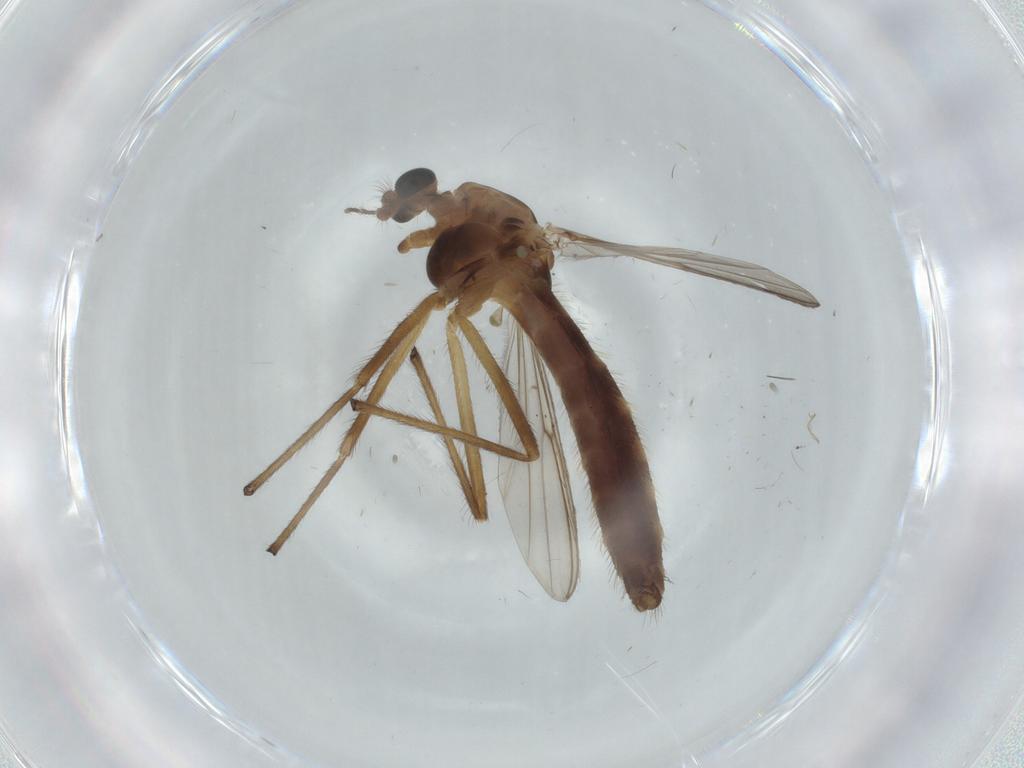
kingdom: Animalia
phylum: Arthropoda
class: Insecta
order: Diptera
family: Chironomidae
